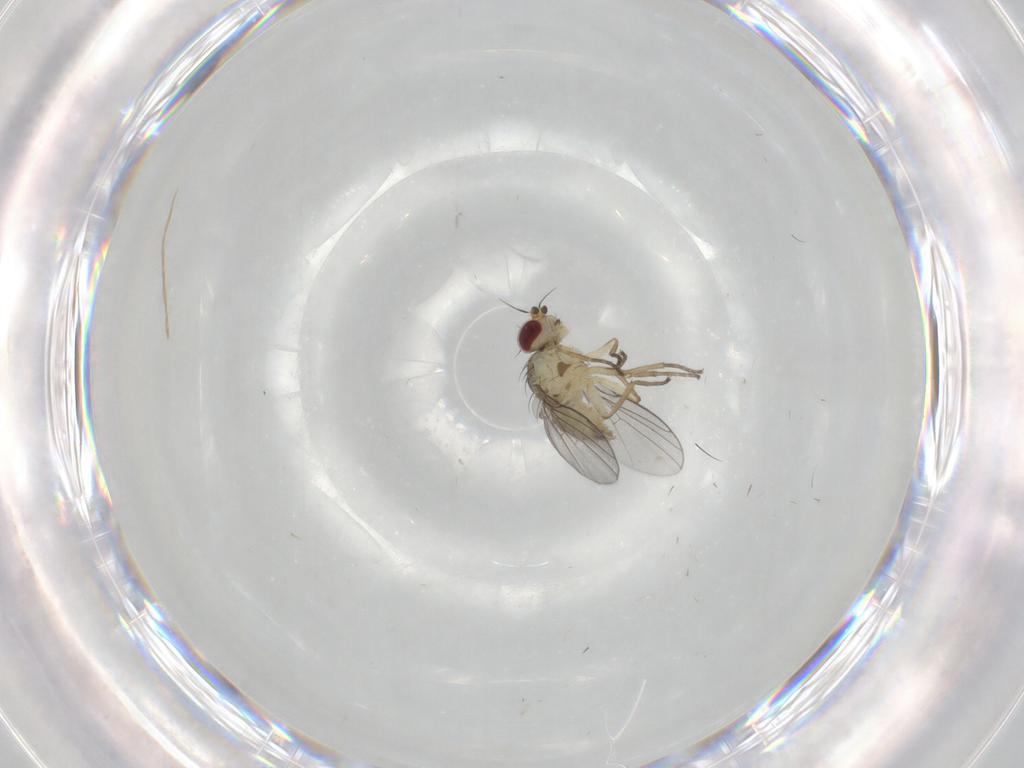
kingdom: Animalia
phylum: Arthropoda
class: Insecta
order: Diptera
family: Agromyzidae
